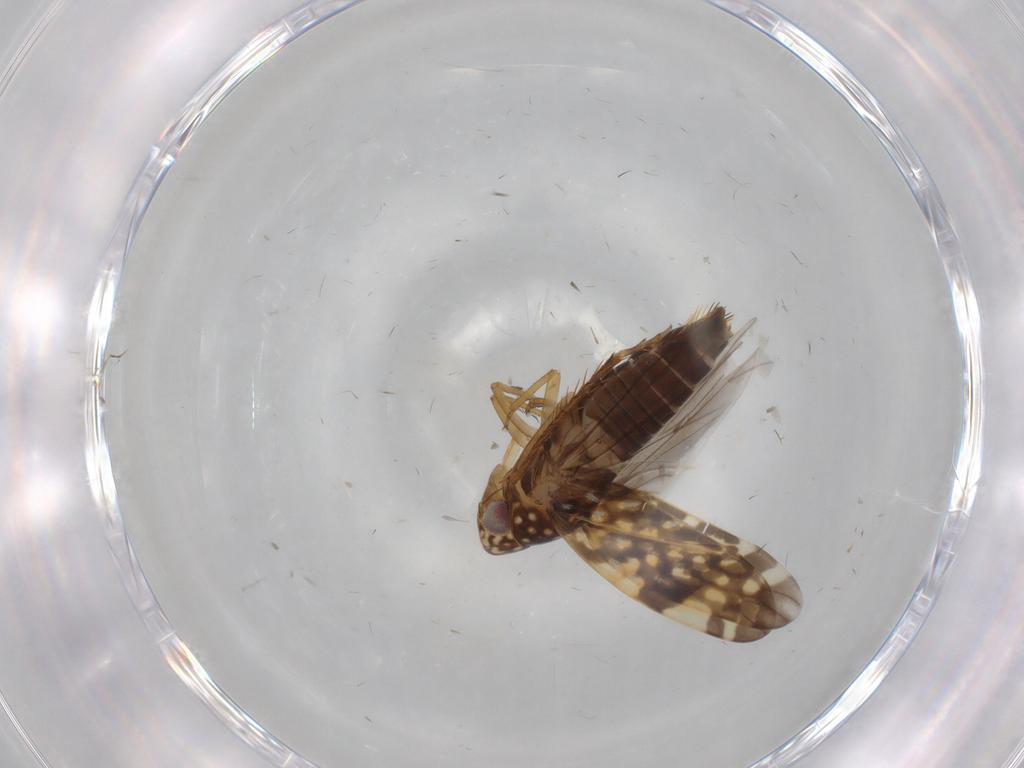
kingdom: Animalia
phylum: Arthropoda
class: Insecta
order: Hemiptera
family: Cicadellidae
